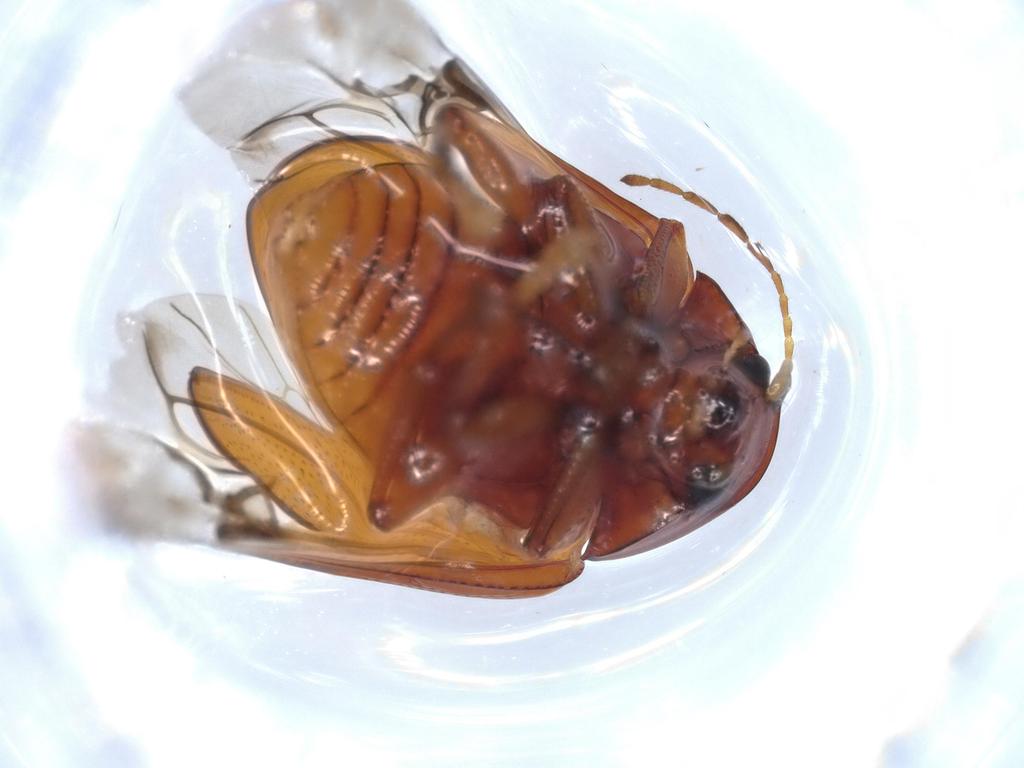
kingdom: Animalia
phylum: Arthropoda
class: Insecta
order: Coleoptera
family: Chrysomelidae
